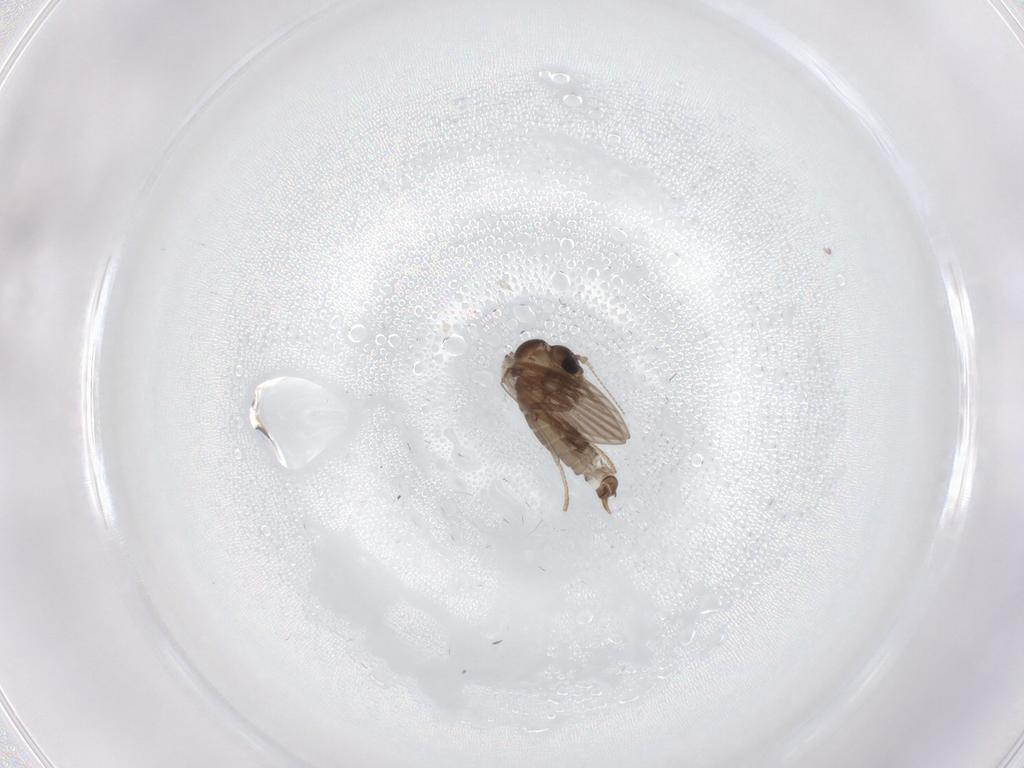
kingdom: Animalia
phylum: Arthropoda
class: Insecta
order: Diptera
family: Psychodidae
